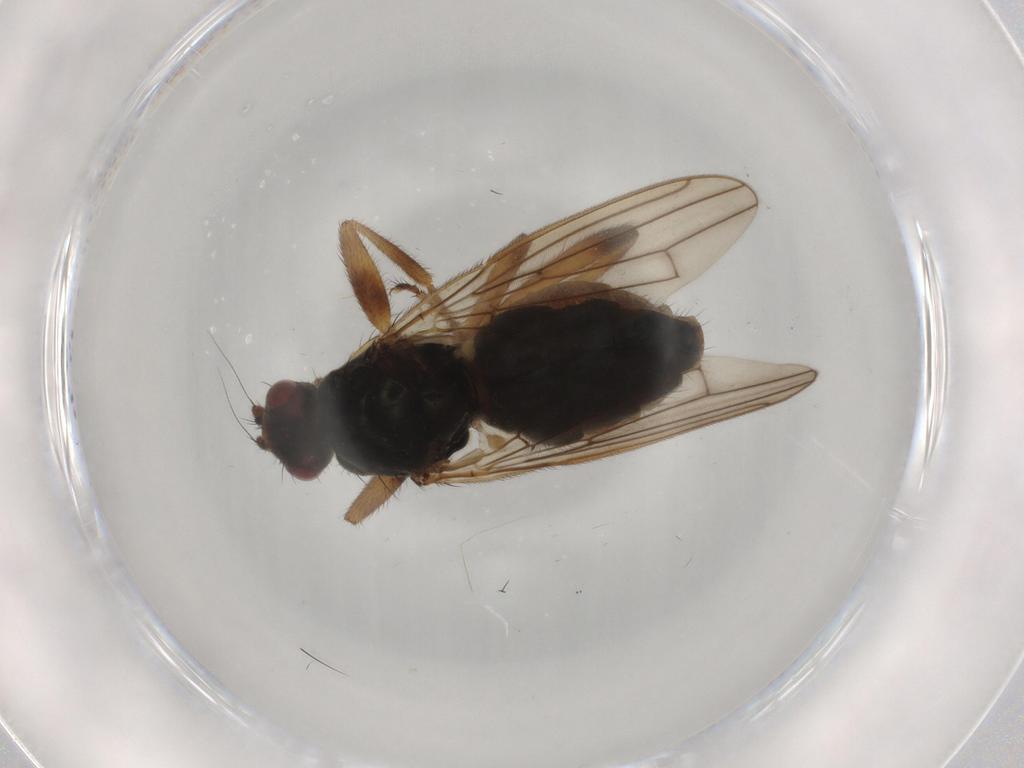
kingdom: Animalia
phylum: Arthropoda
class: Insecta
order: Diptera
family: Sphaeroceridae
